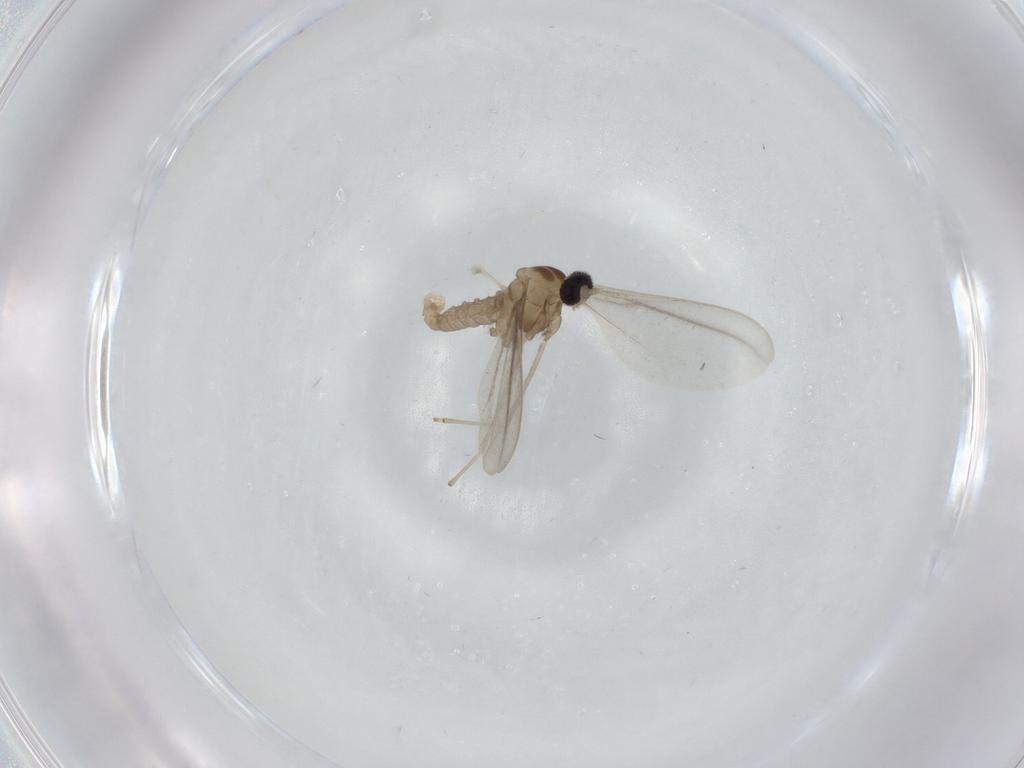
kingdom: Animalia
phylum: Arthropoda
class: Insecta
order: Diptera
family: Cecidomyiidae
